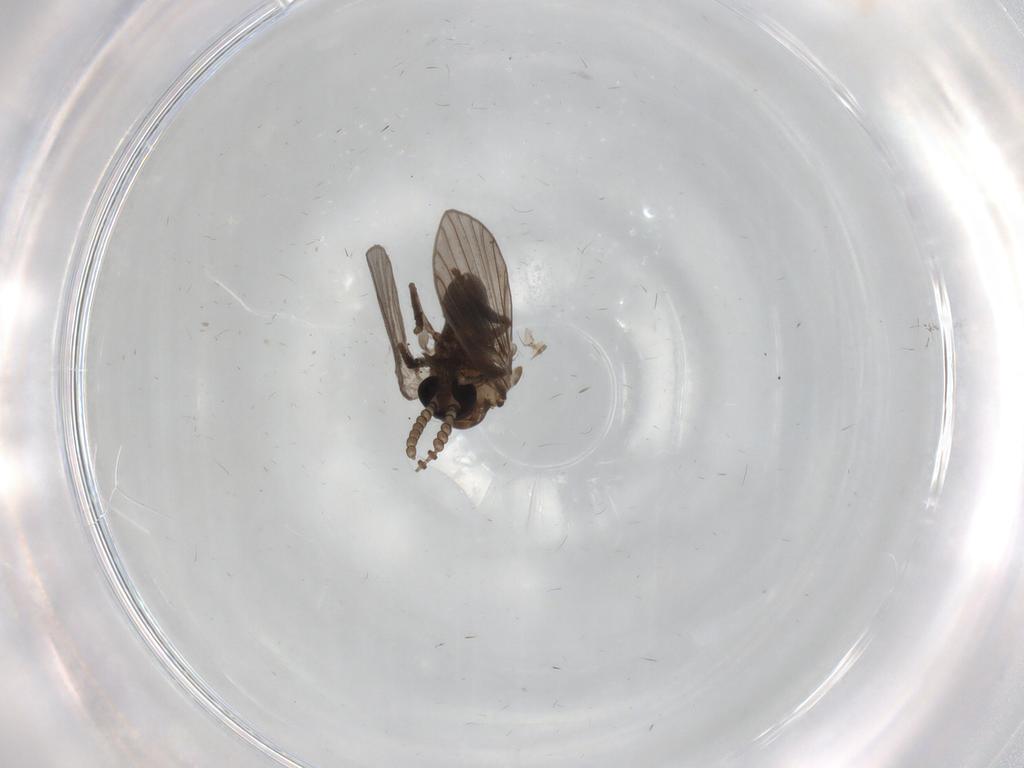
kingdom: Animalia
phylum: Arthropoda
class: Insecta
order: Diptera
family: Psychodidae
